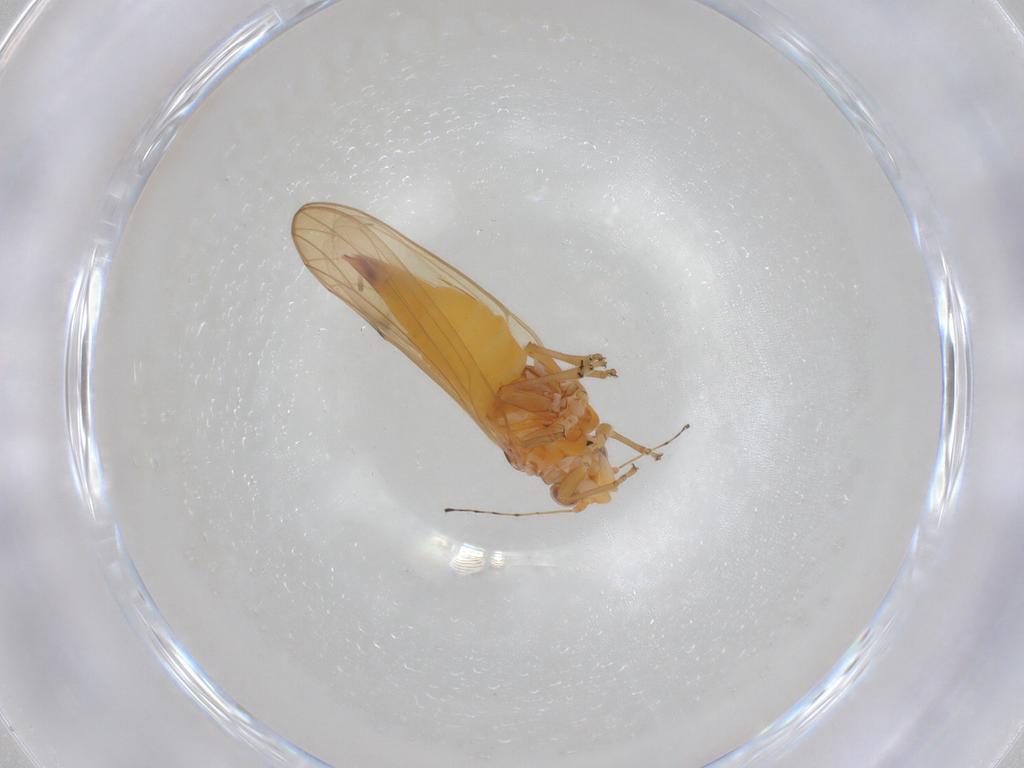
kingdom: Animalia
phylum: Arthropoda
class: Insecta
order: Hemiptera
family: Psylloidea_incertae_sedis
